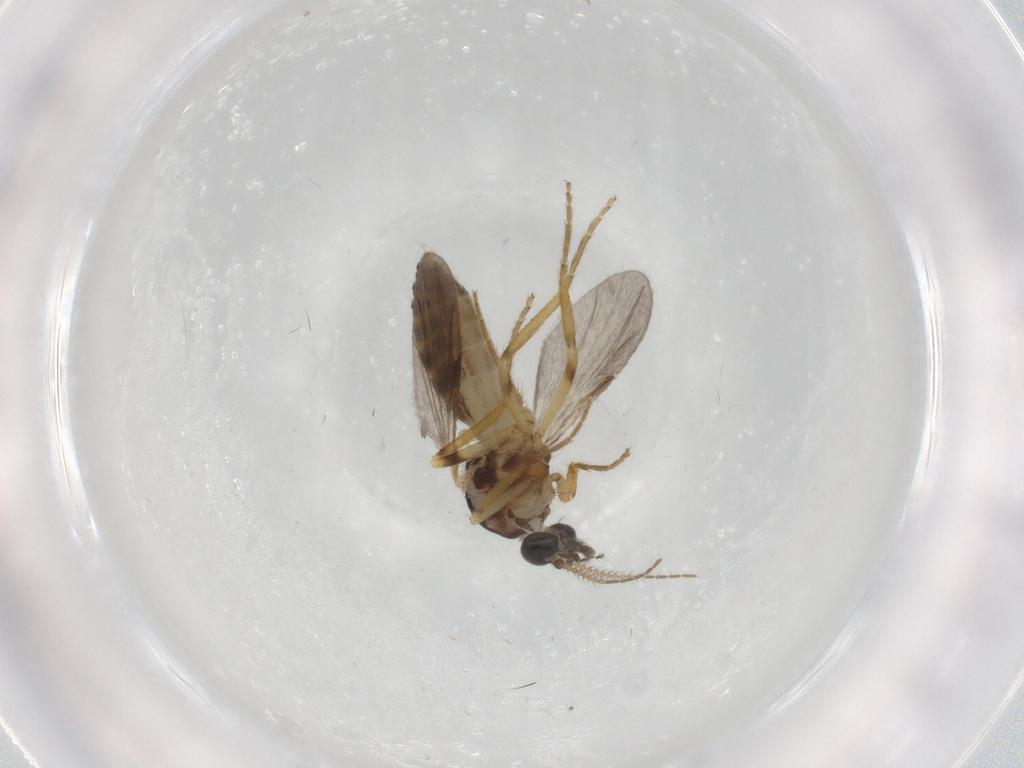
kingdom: Animalia
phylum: Arthropoda
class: Insecta
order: Diptera
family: Ceratopogonidae
